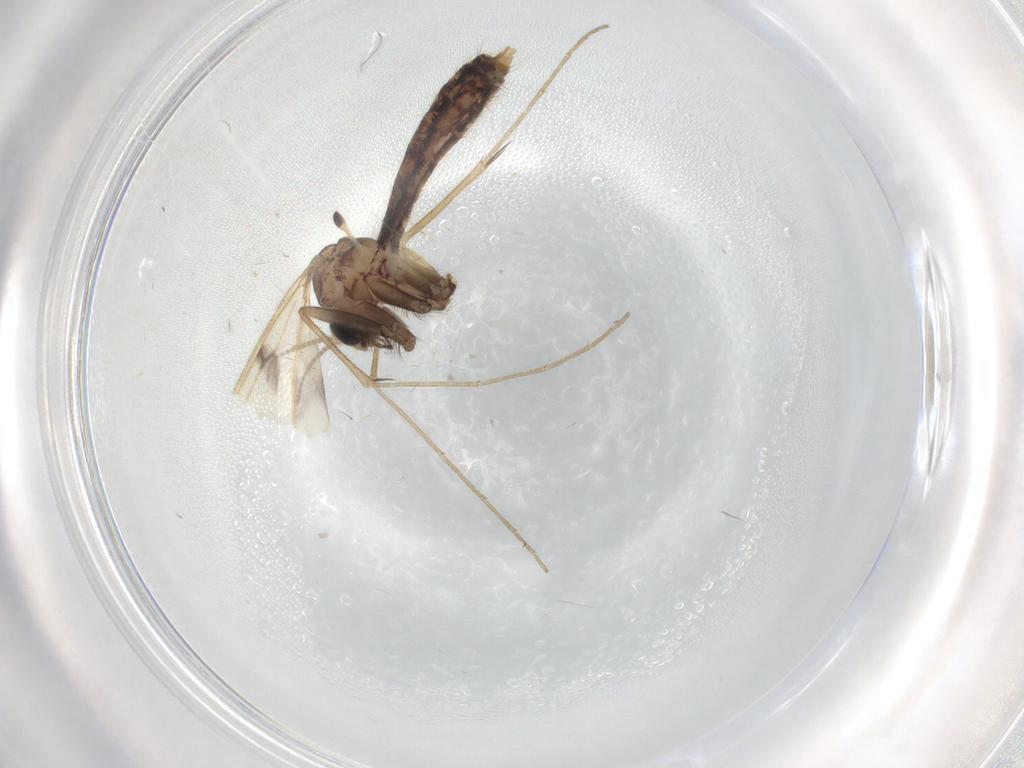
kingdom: Animalia
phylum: Arthropoda
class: Insecta
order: Diptera
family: Mycetophilidae
